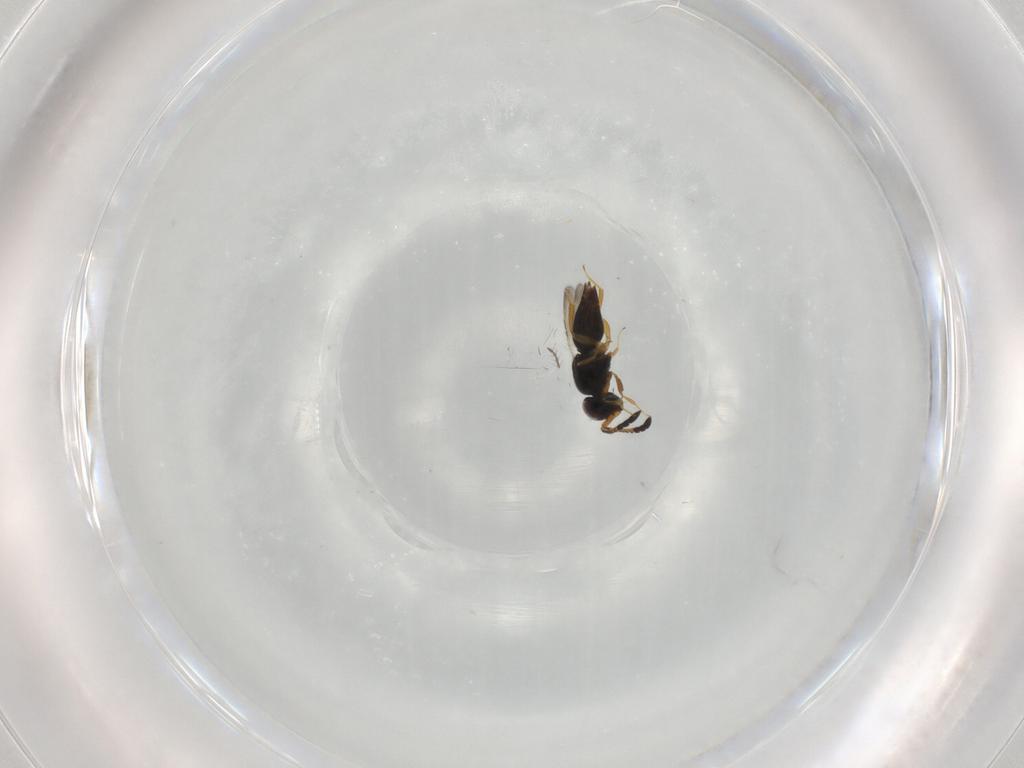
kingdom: Animalia
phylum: Arthropoda
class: Insecta
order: Hymenoptera
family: Ceraphronidae
